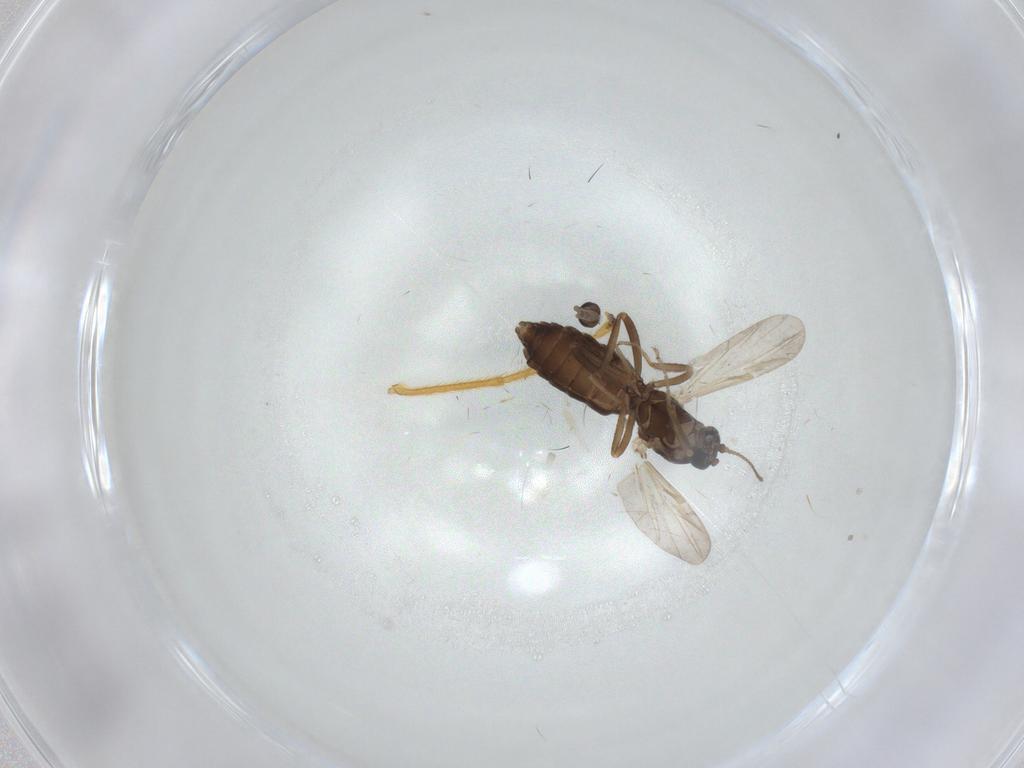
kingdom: Animalia
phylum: Arthropoda
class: Insecta
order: Diptera
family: Ceratopogonidae
